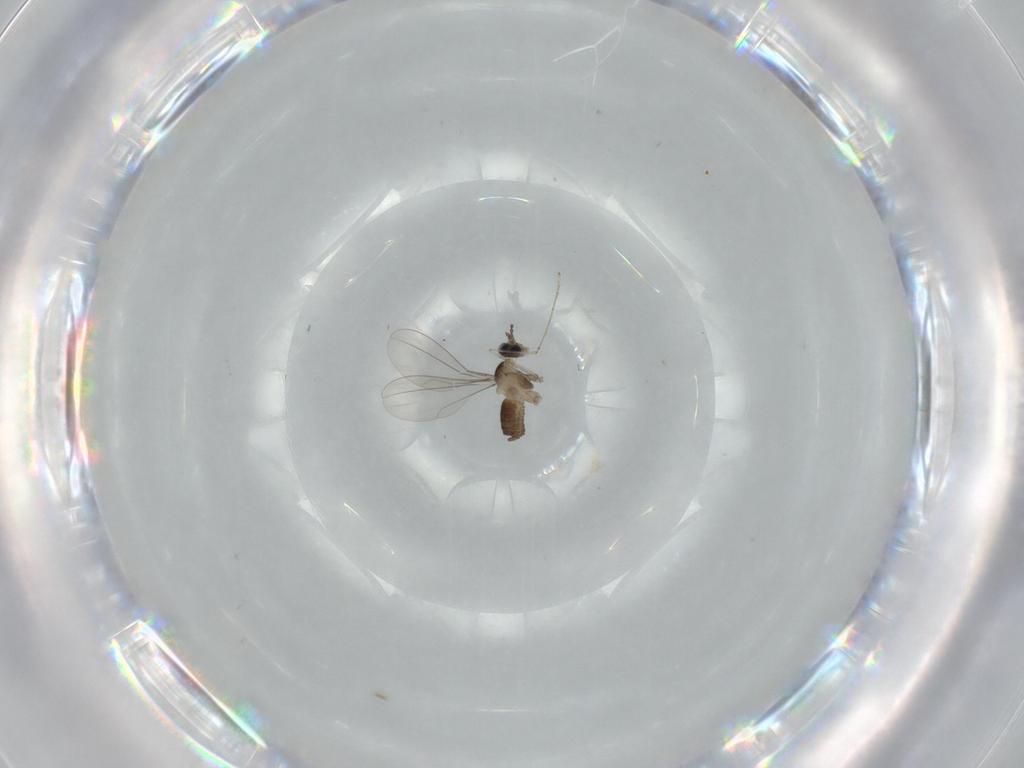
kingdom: Animalia
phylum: Arthropoda
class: Insecta
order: Diptera
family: Cecidomyiidae
